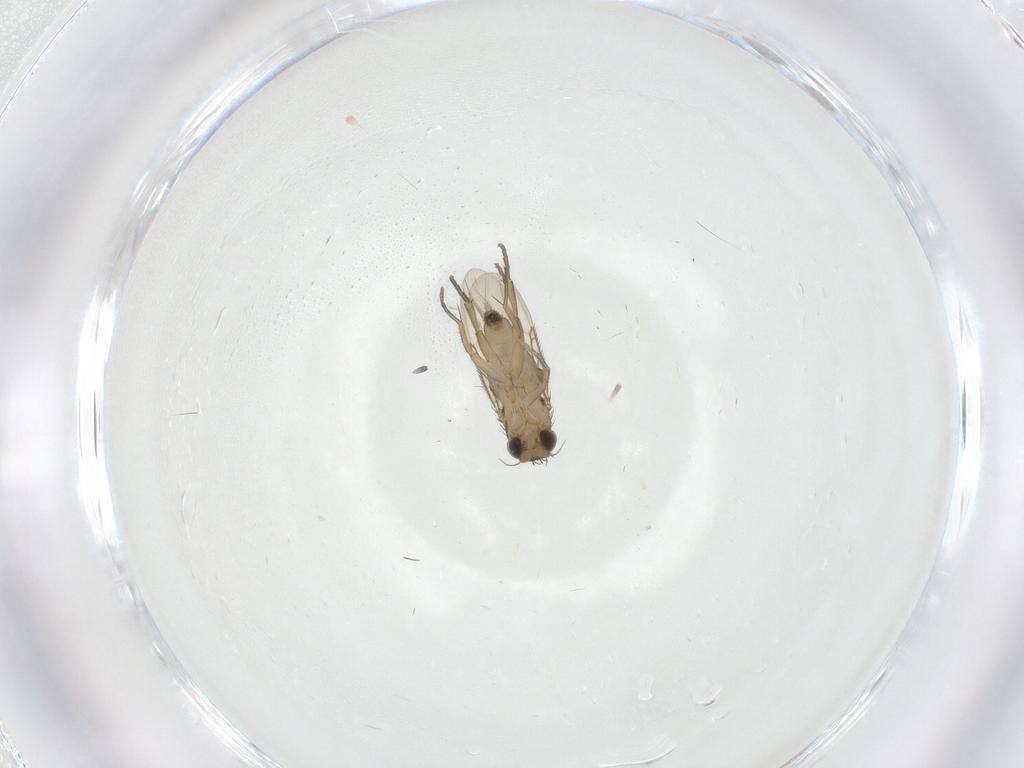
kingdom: Animalia
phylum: Arthropoda
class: Insecta
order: Diptera
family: Phoridae
